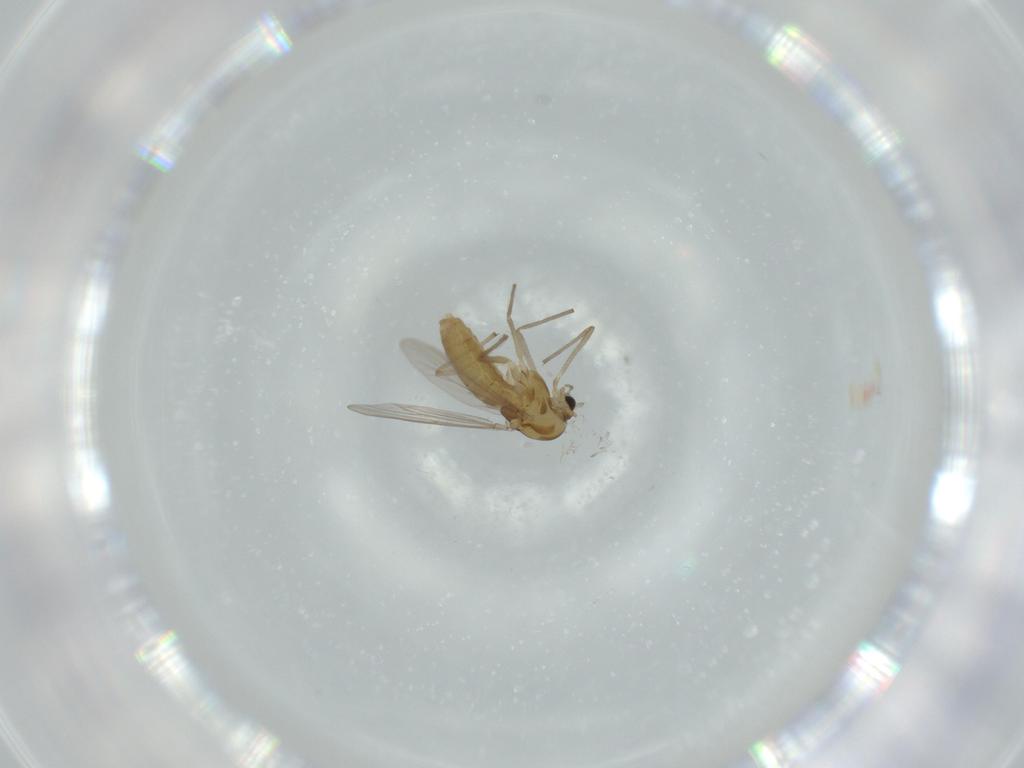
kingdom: Animalia
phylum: Arthropoda
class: Insecta
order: Diptera
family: Chironomidae
